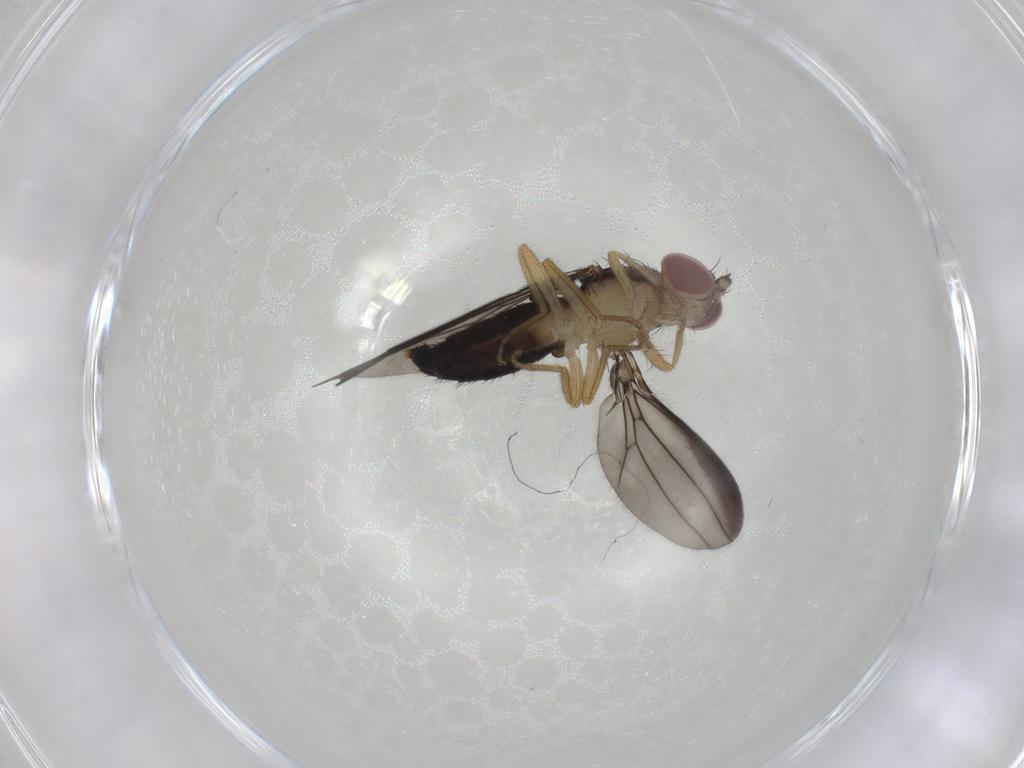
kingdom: Animalia
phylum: Arthropoda
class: Insecta
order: Diptera
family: Anthomyzidae
